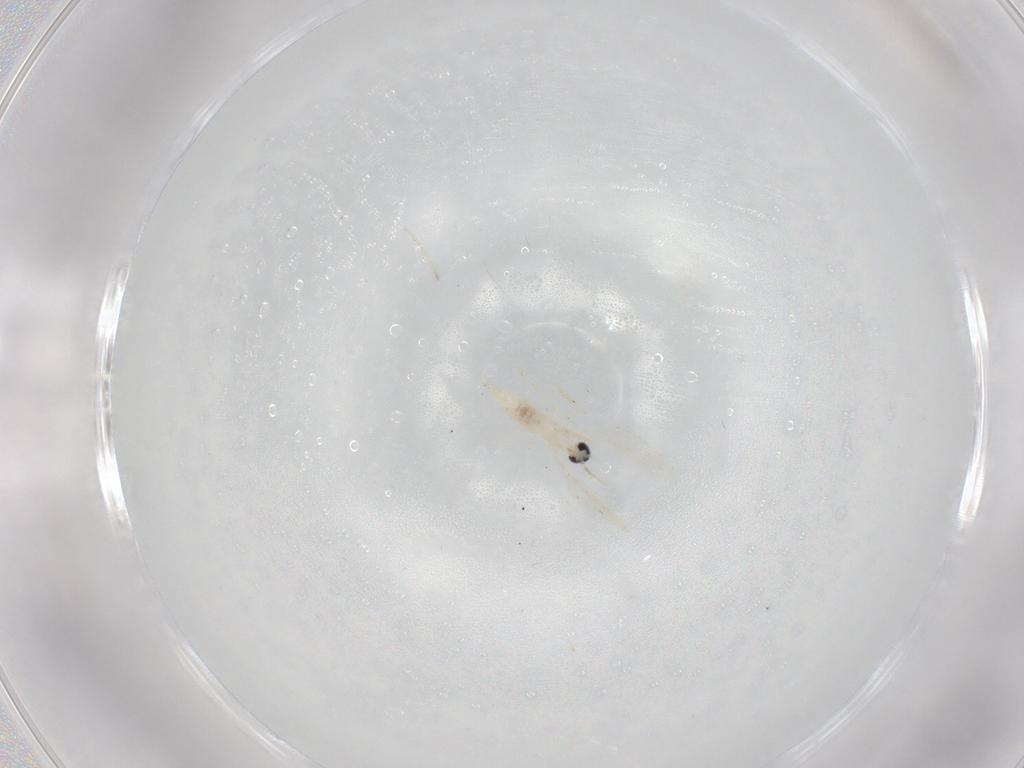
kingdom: Animalia
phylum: Arthropoda
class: Insecta
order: Diptera
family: Cecidomyiidae
